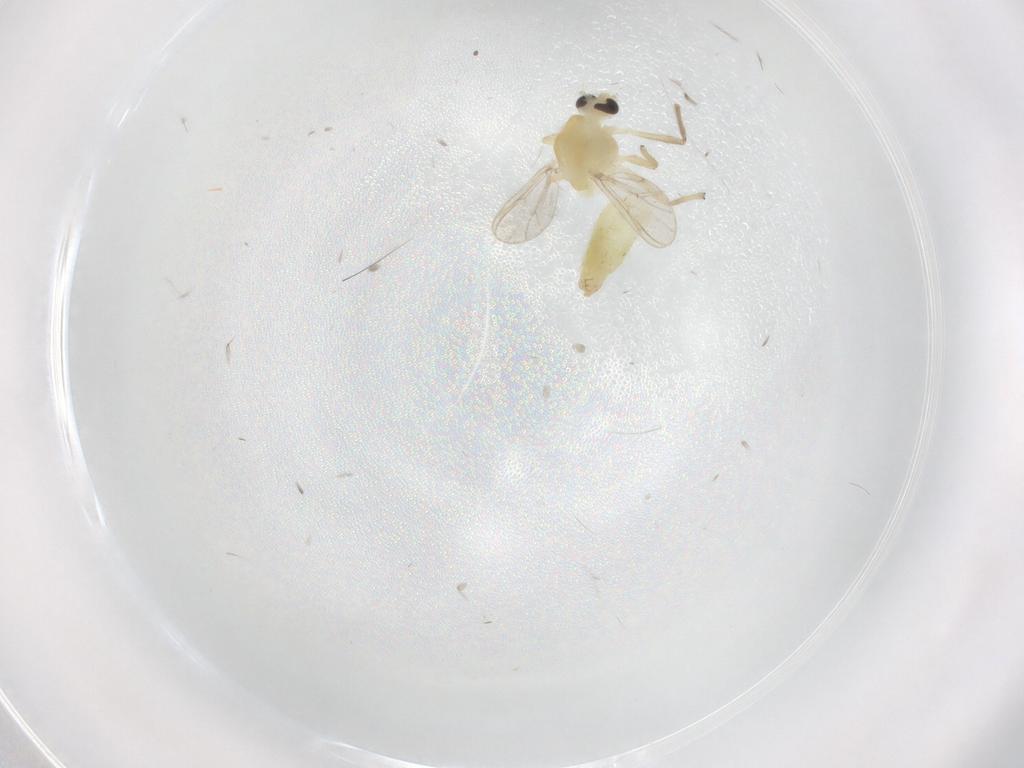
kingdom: Animalia
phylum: Arthropoda
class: Insecta
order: Diptera
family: Chironomidae
